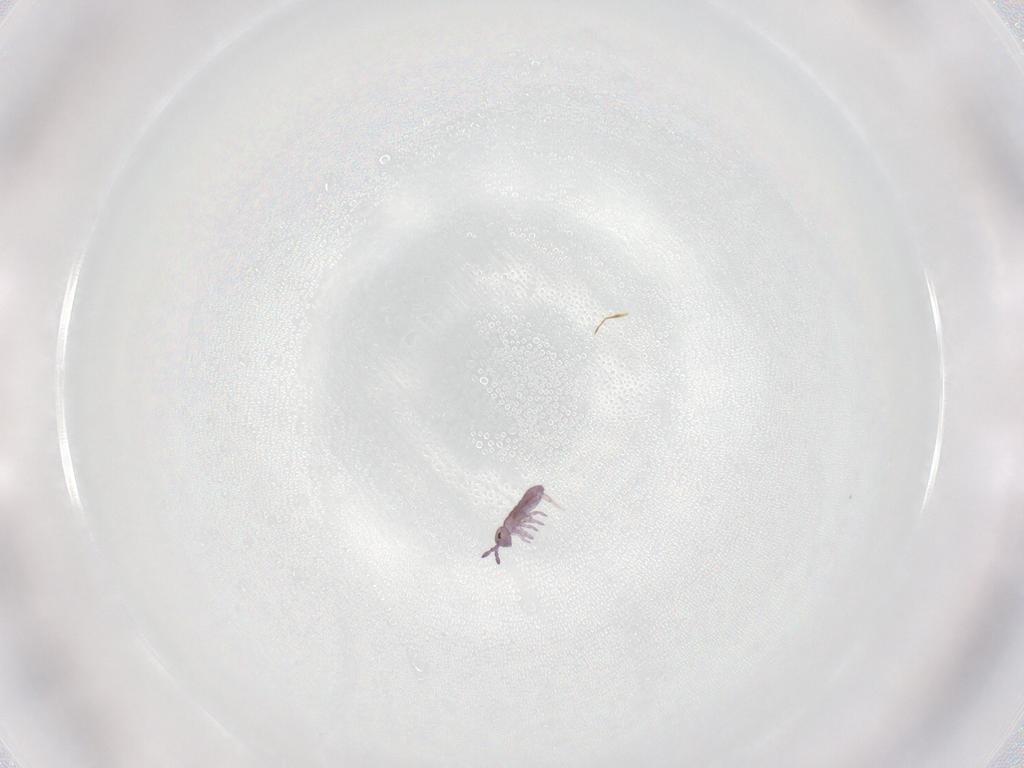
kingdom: Animalia
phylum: Arthropoda
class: Collembola
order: Entomobryomorpha
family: Isotomidae
